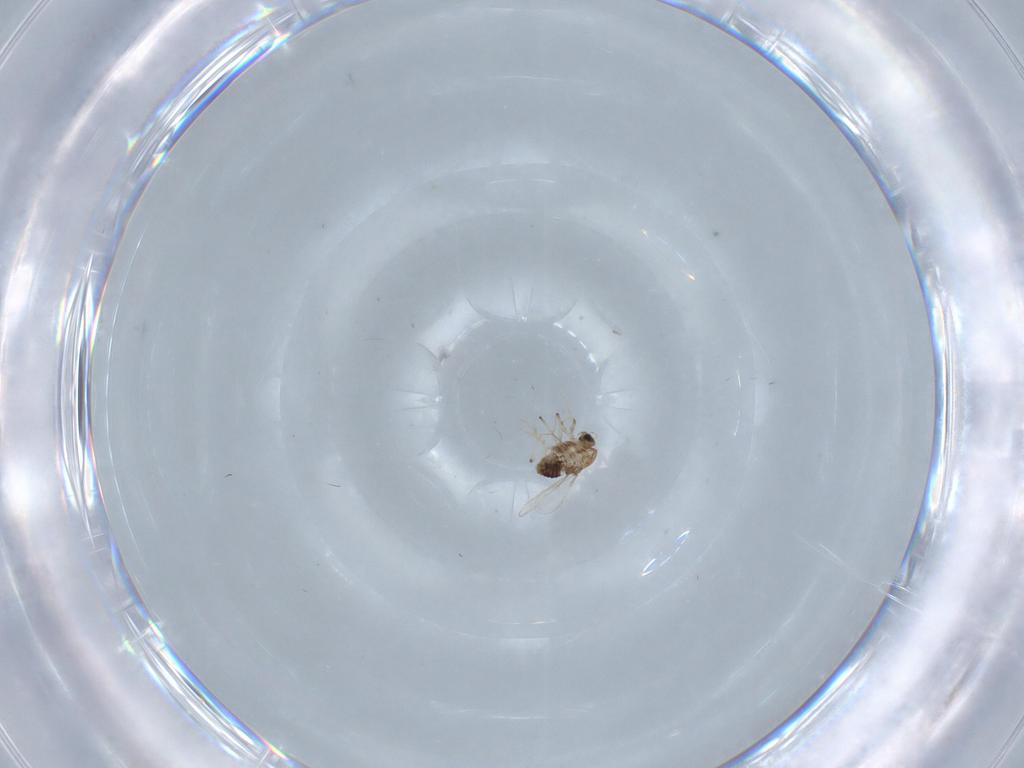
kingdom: Animalia
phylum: Arthropoda
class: Insecta
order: Diptera
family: Chironomidae
